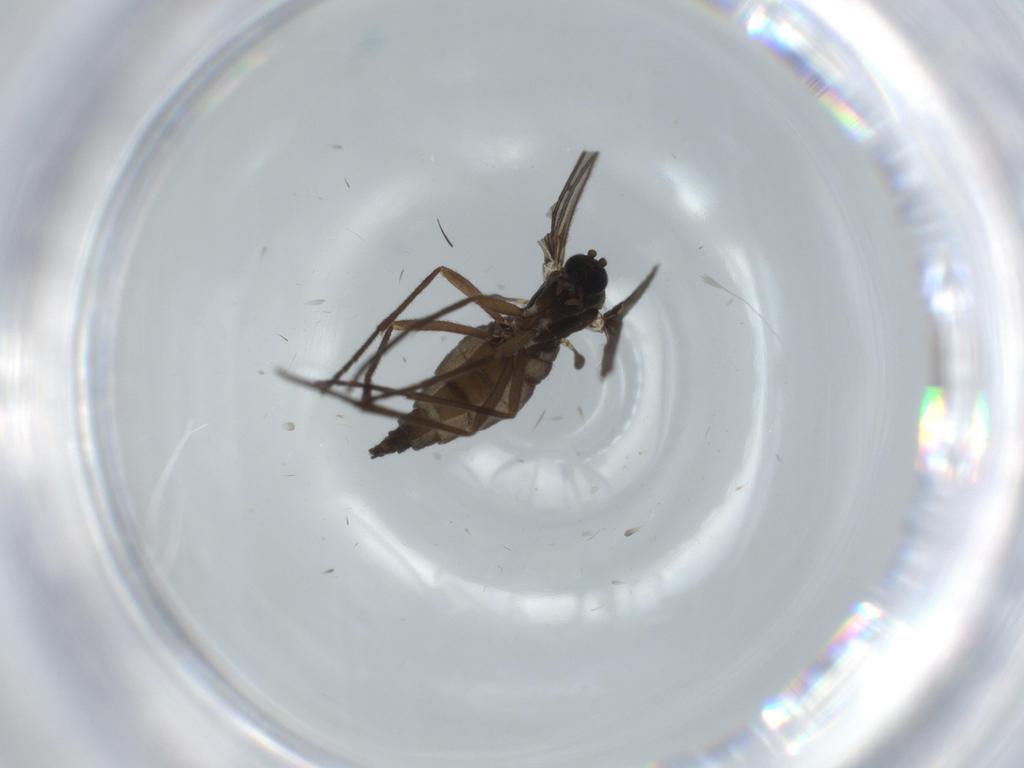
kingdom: Animalia
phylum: Arthropoda
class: Insecta
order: Diptera
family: Sciaridae
